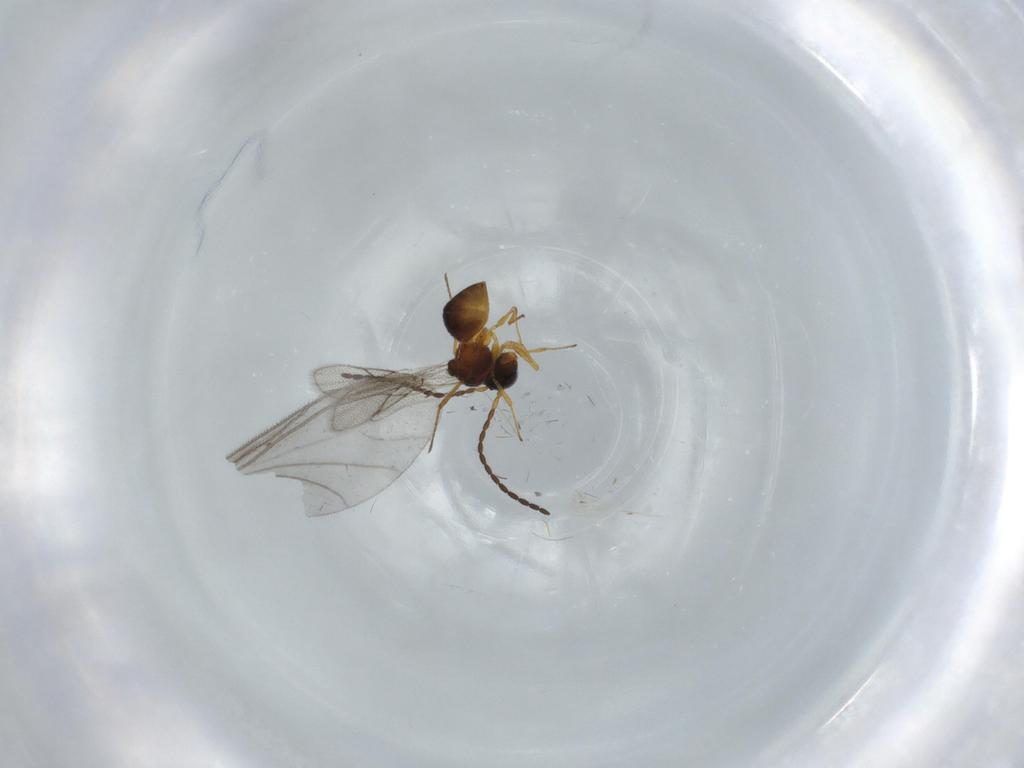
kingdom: Animalia
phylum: Arthropoda
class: Insecta
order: Hymenoptera
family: Figitidae
